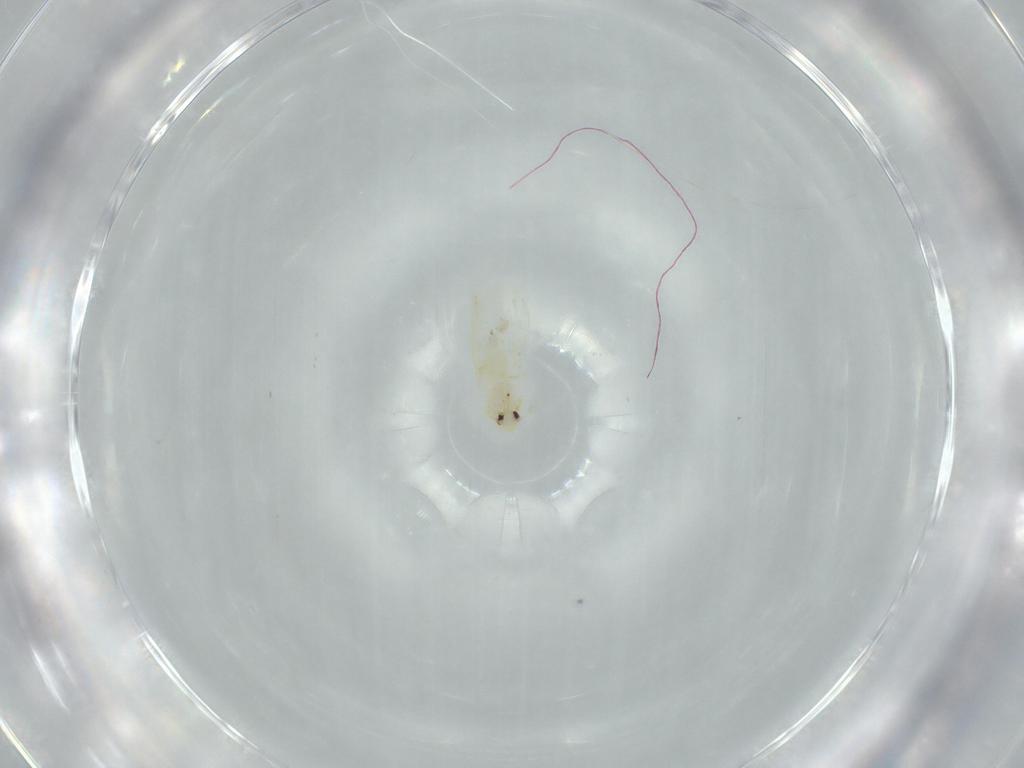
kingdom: Animalia
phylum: Arthropoda
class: Insecta
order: Hemiptera
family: Aleyrodidae
